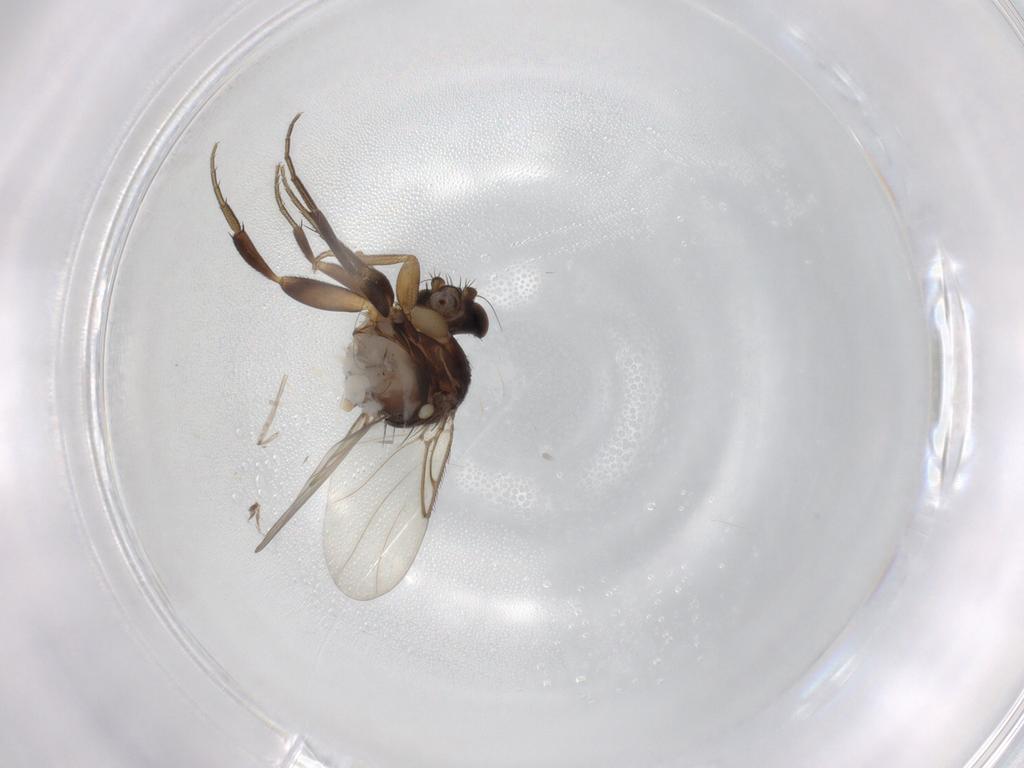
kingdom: Animalia
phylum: Arthropoda
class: Insecta
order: Diptera
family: Phoridae
